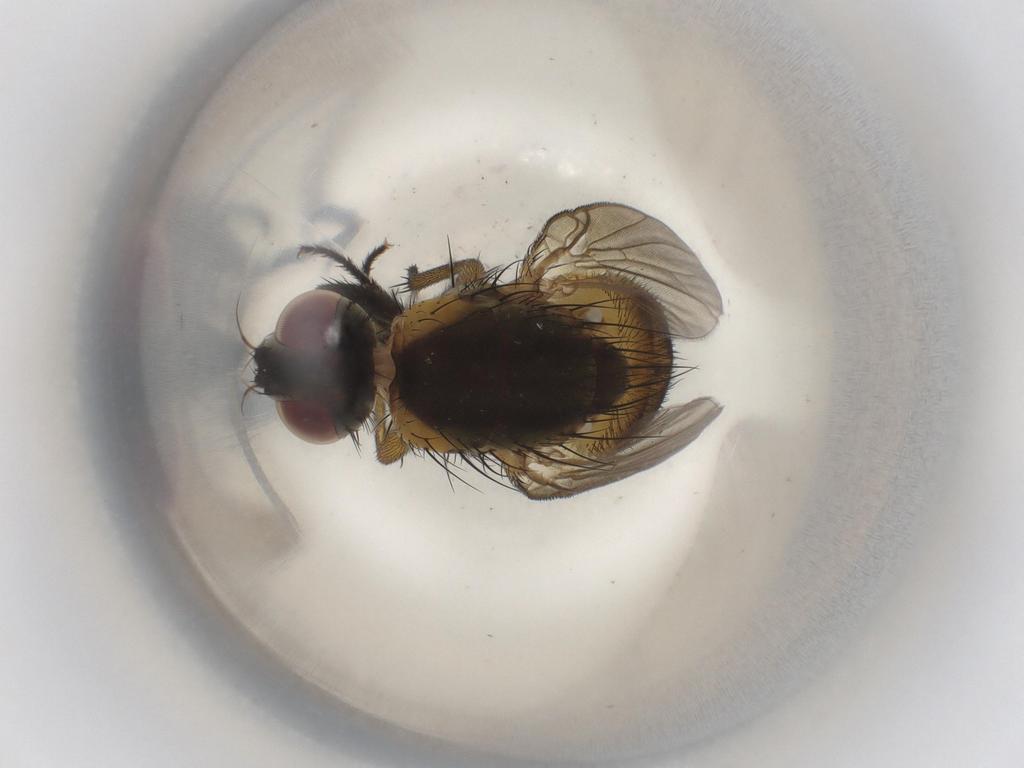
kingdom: Animalia
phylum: Arthropoda
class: Insecta
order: Diptera
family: Muscidae
